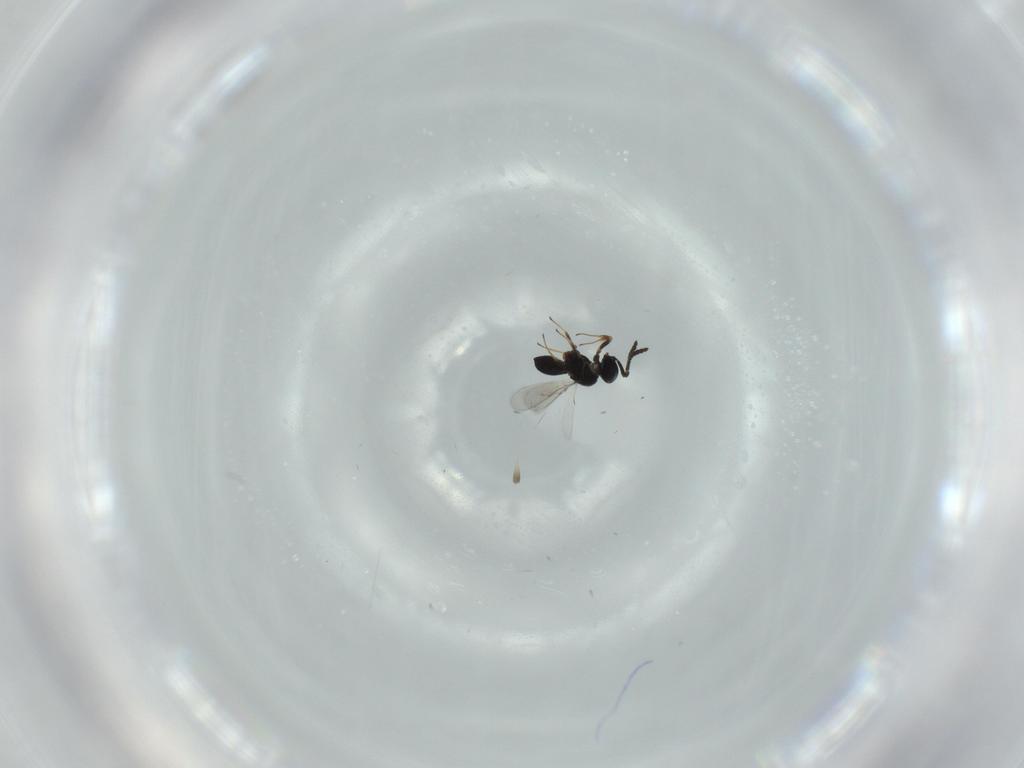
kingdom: Animalia
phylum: Arthropoda
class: Insecta
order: Hymenoptera
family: Scelionidae
